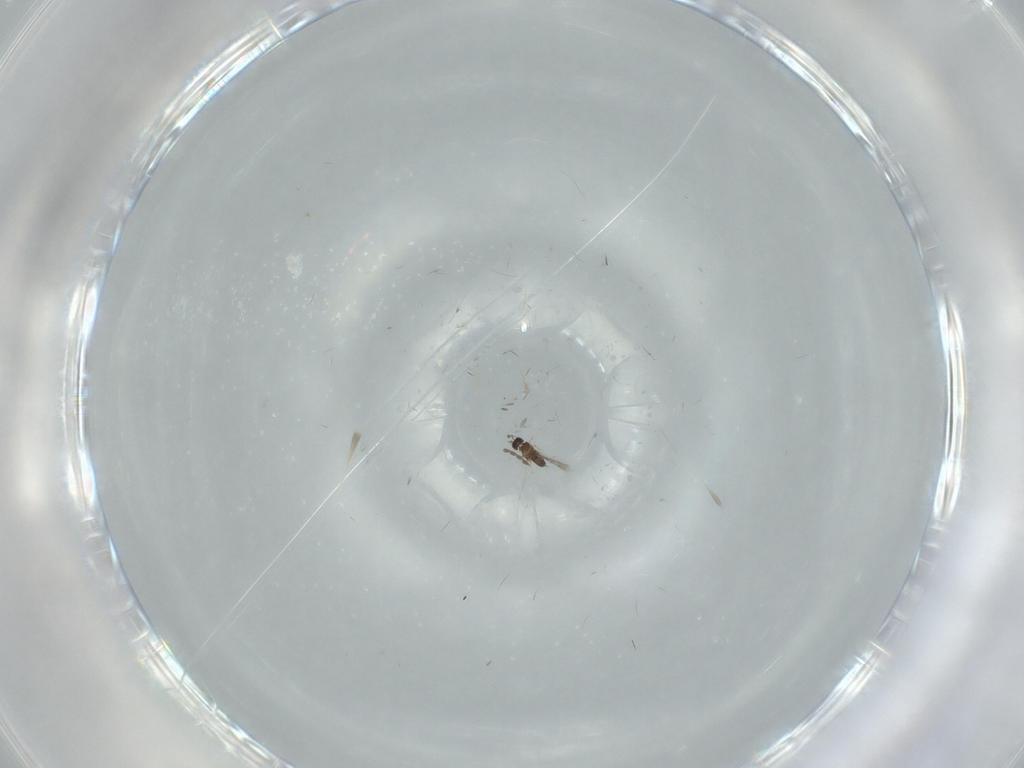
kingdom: Animalia
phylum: Arthropoda
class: Insecta
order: Diptera
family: Phoridae
